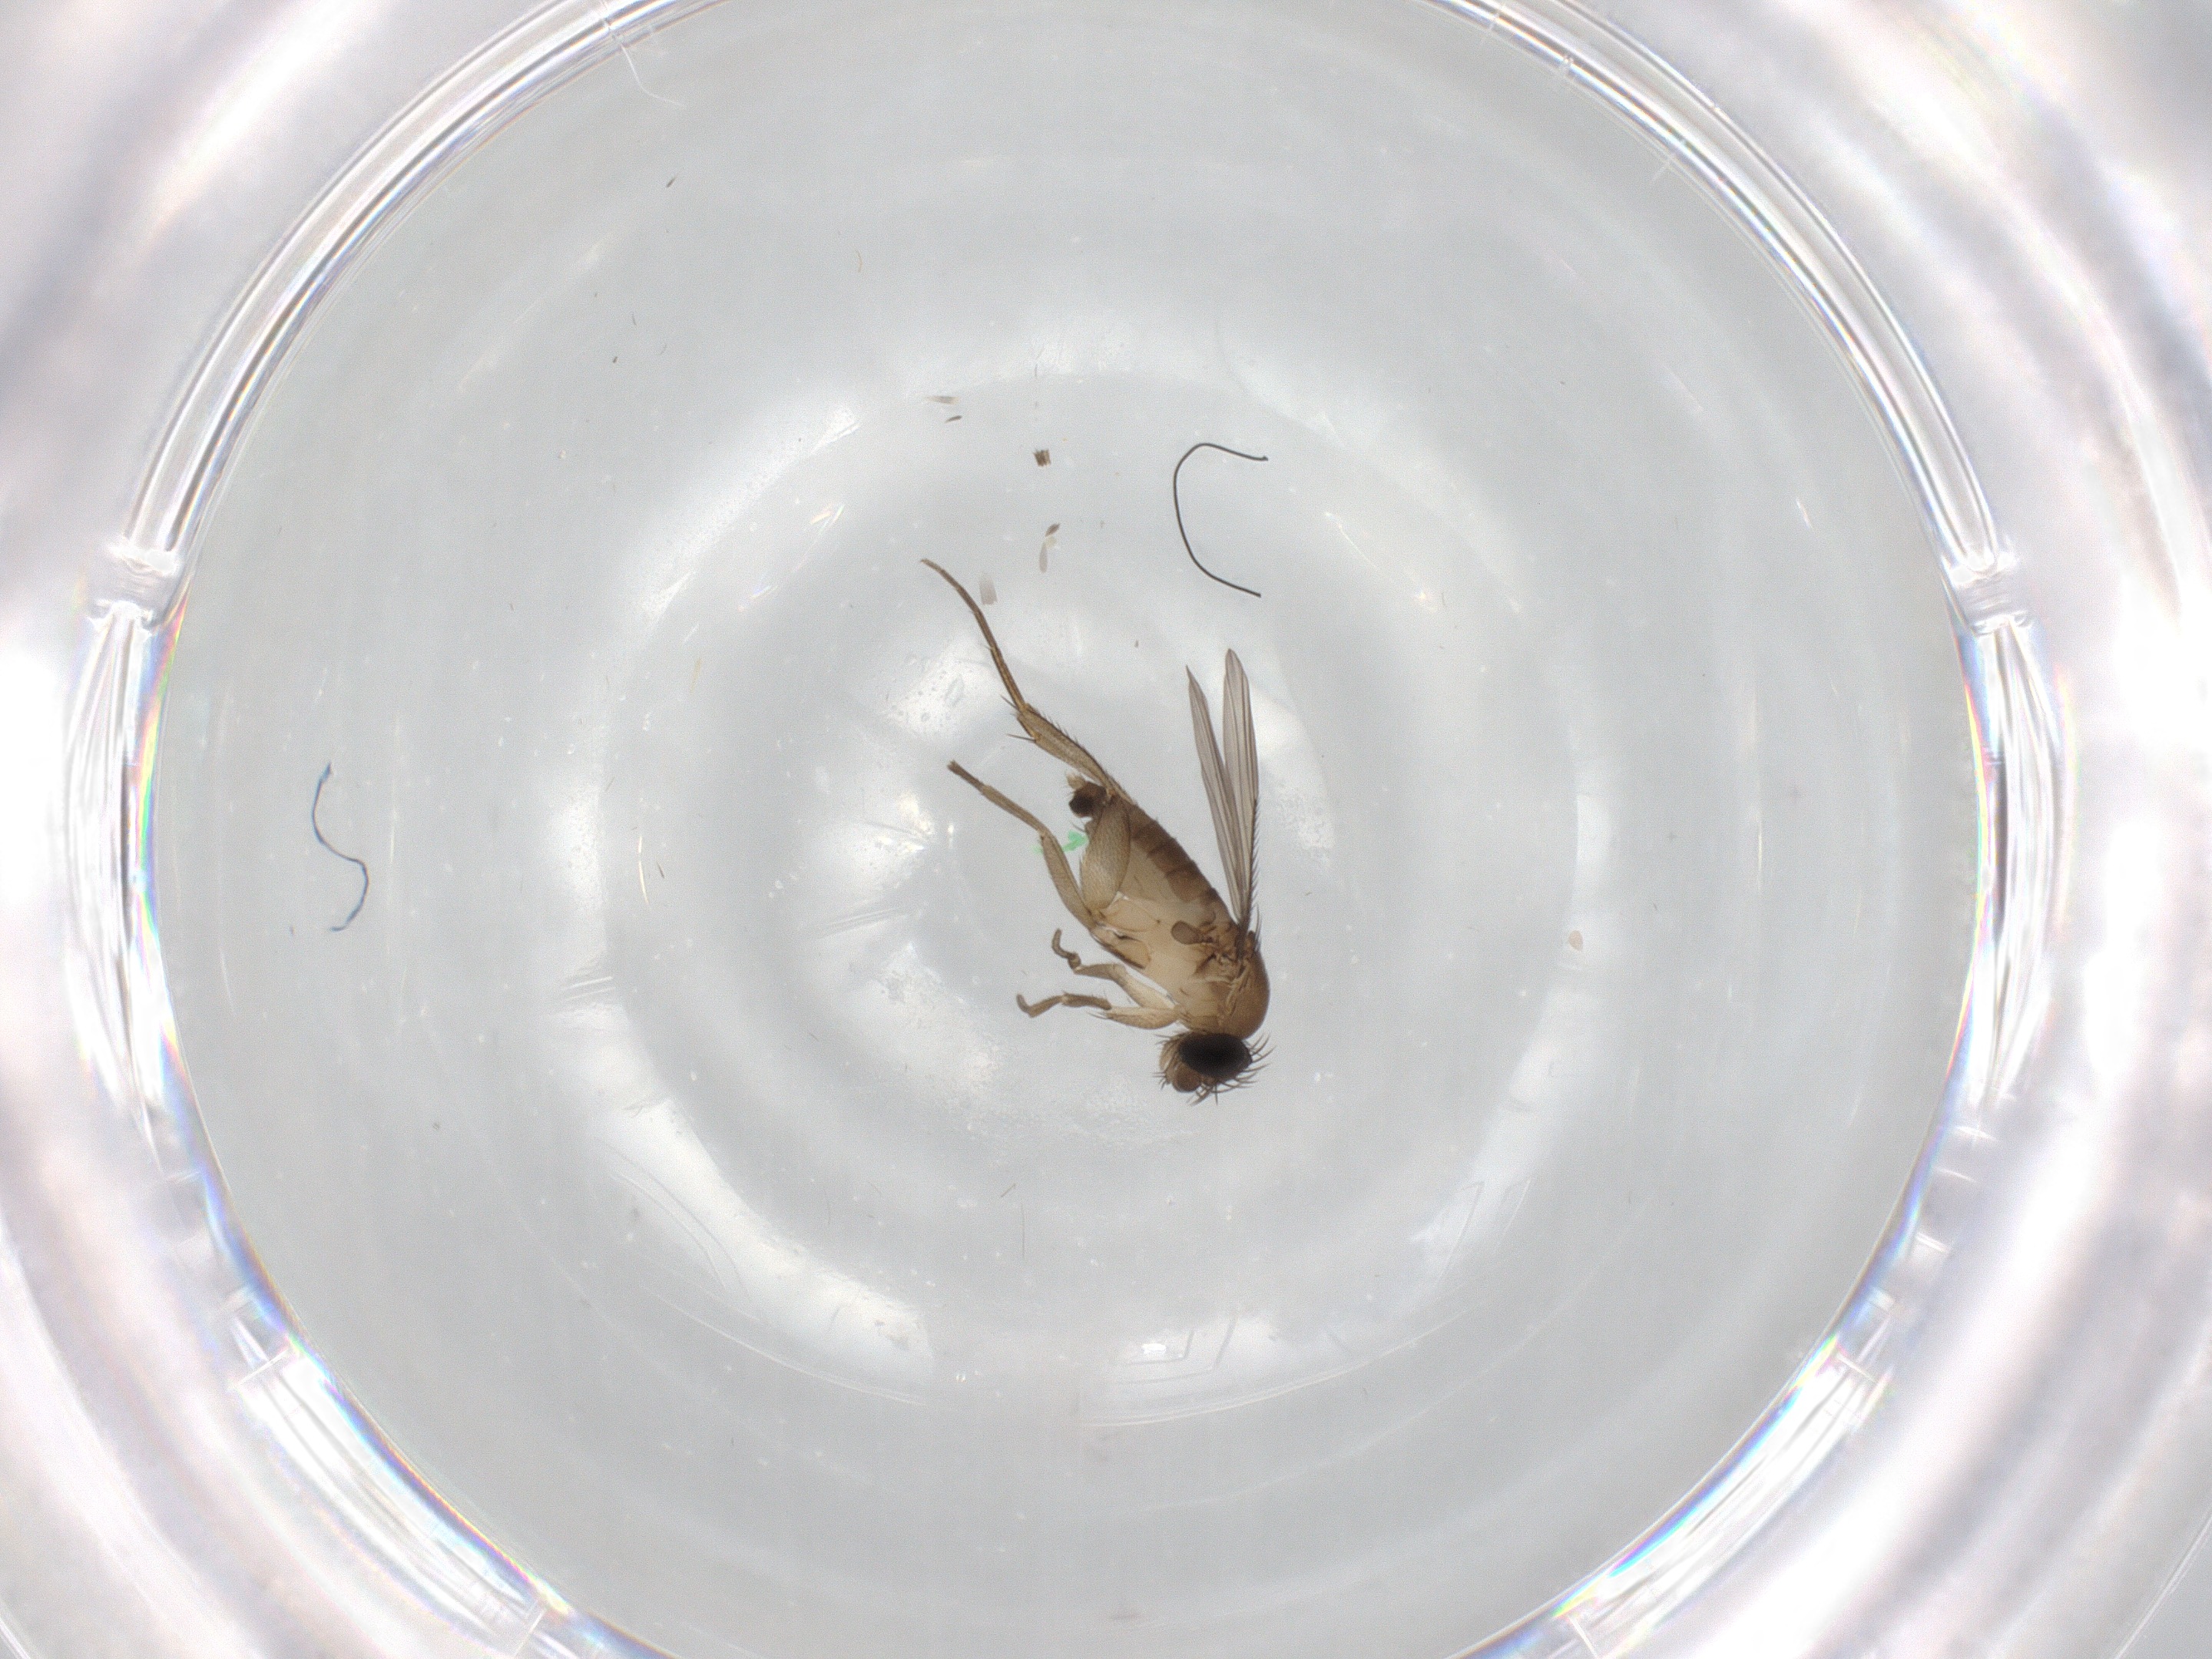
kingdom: Animalia
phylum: Arthropoda
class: Insecta
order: Diptera
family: Phoridae
